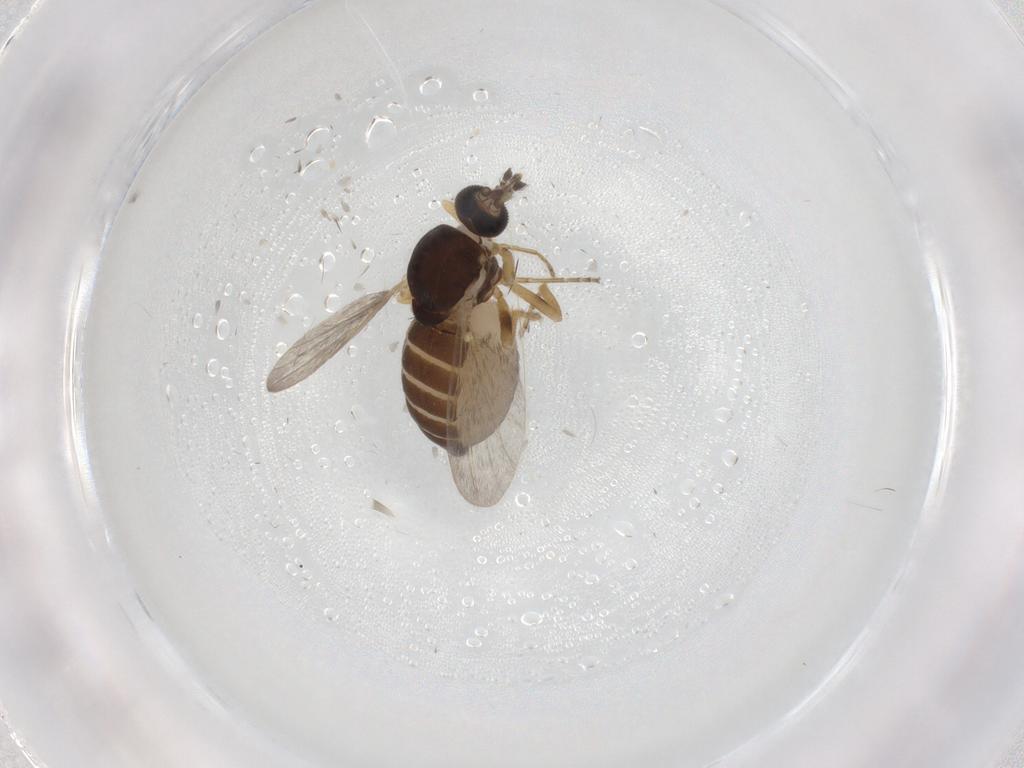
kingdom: Animalia
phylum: Arthropoda
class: Insecta
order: Diptera
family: Ceratopogonidae
